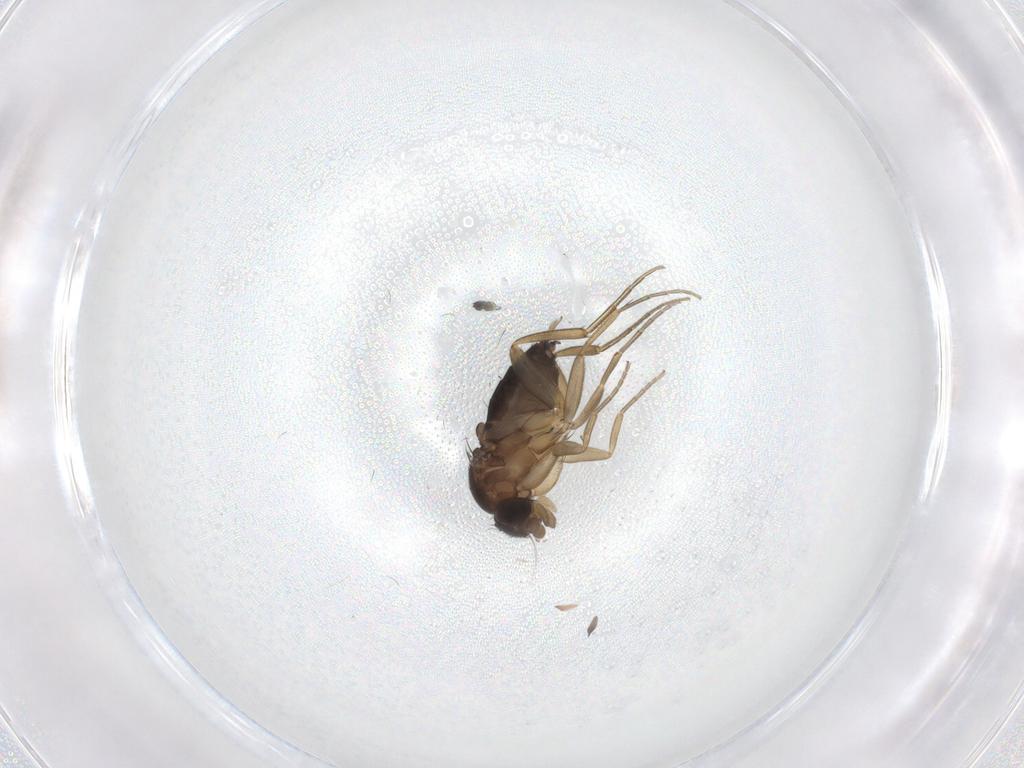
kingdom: Animalia
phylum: Arthropoda
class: Insecta
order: Diptera
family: Phoridae
